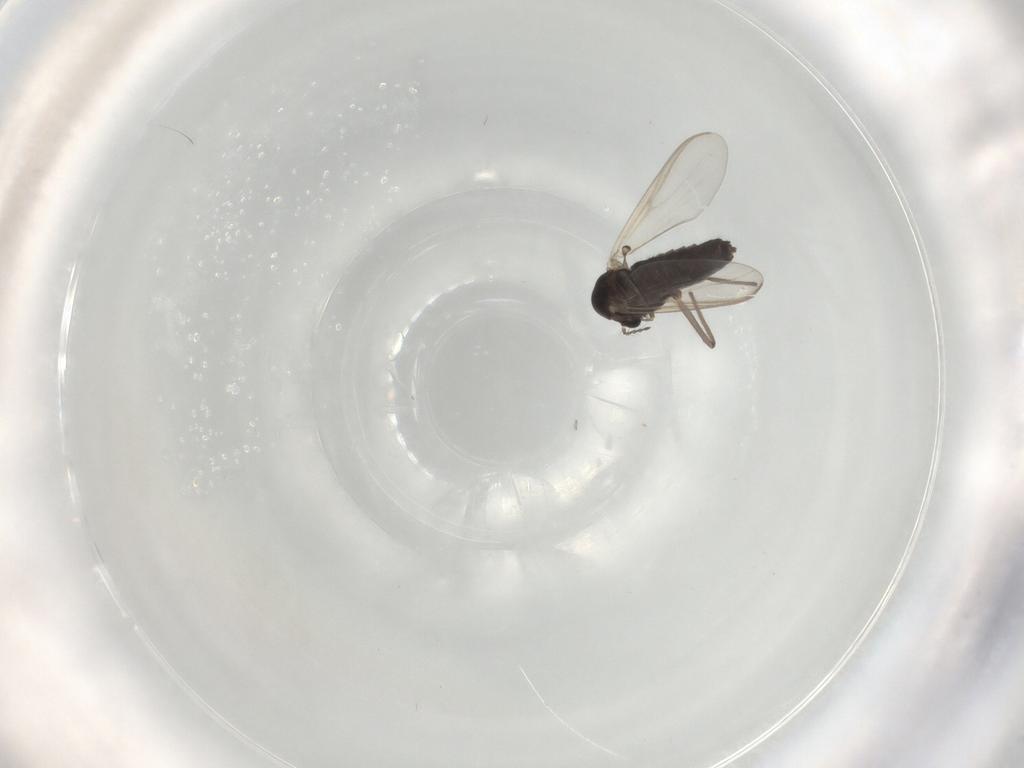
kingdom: Animalia
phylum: Arthropoda
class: Insecta
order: Diptera
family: Chironomidae
